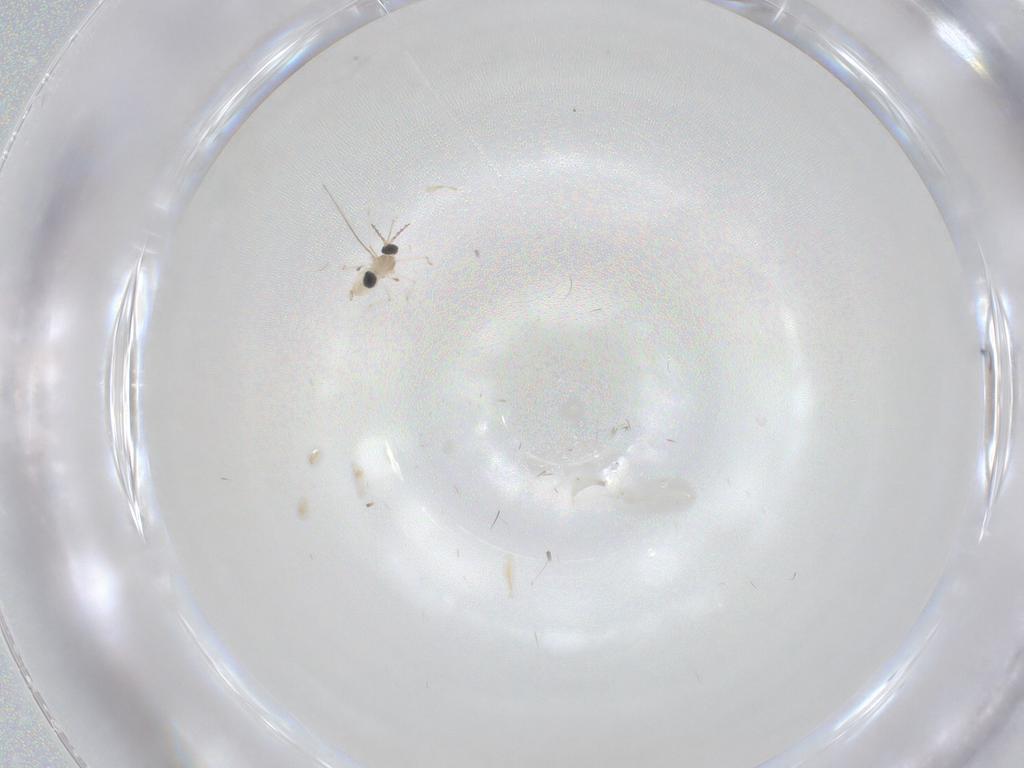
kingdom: Animalia
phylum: Arthropoda
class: Insecta
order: Diptera
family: Cecidomyiidae
